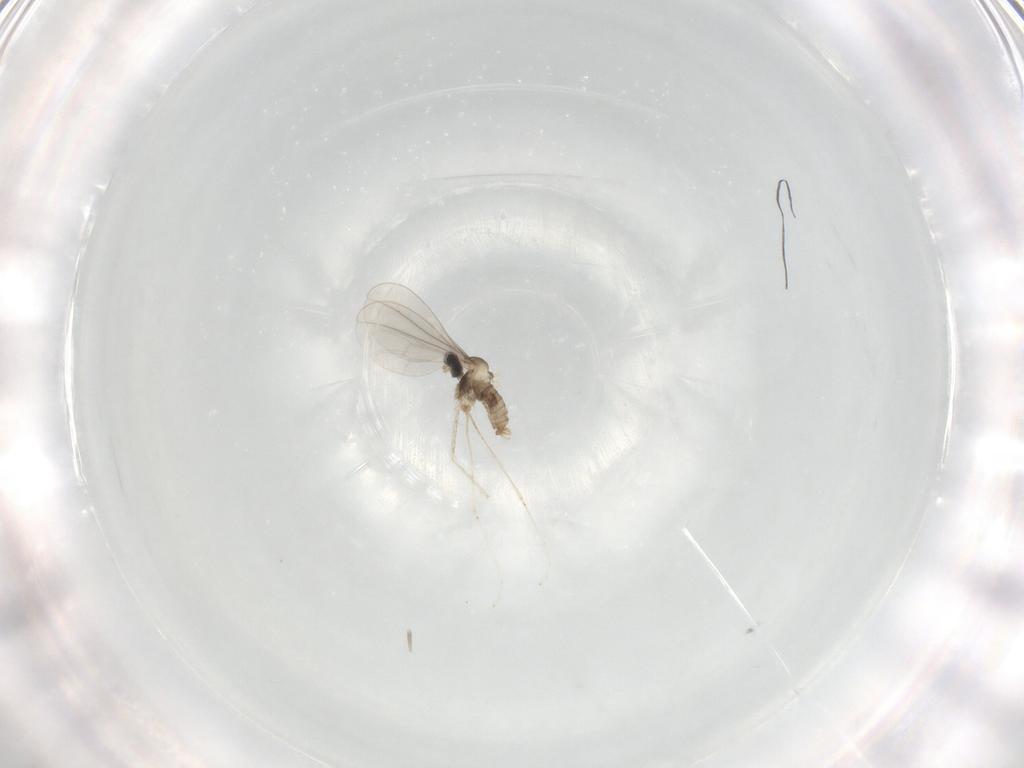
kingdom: Animalia
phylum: Arthropoda
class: Insecta
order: Diptera
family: Cecidomyiidae
